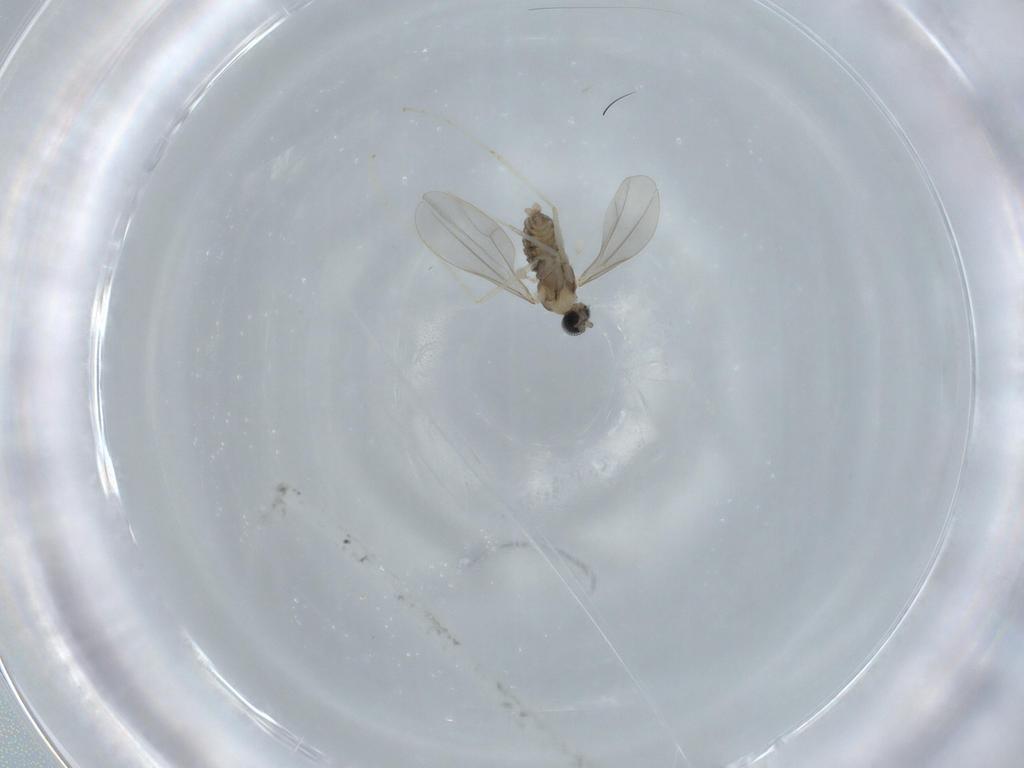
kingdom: Animalia
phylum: Arthropoda
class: Insecta
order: Diptera
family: Cecidomyiidae
